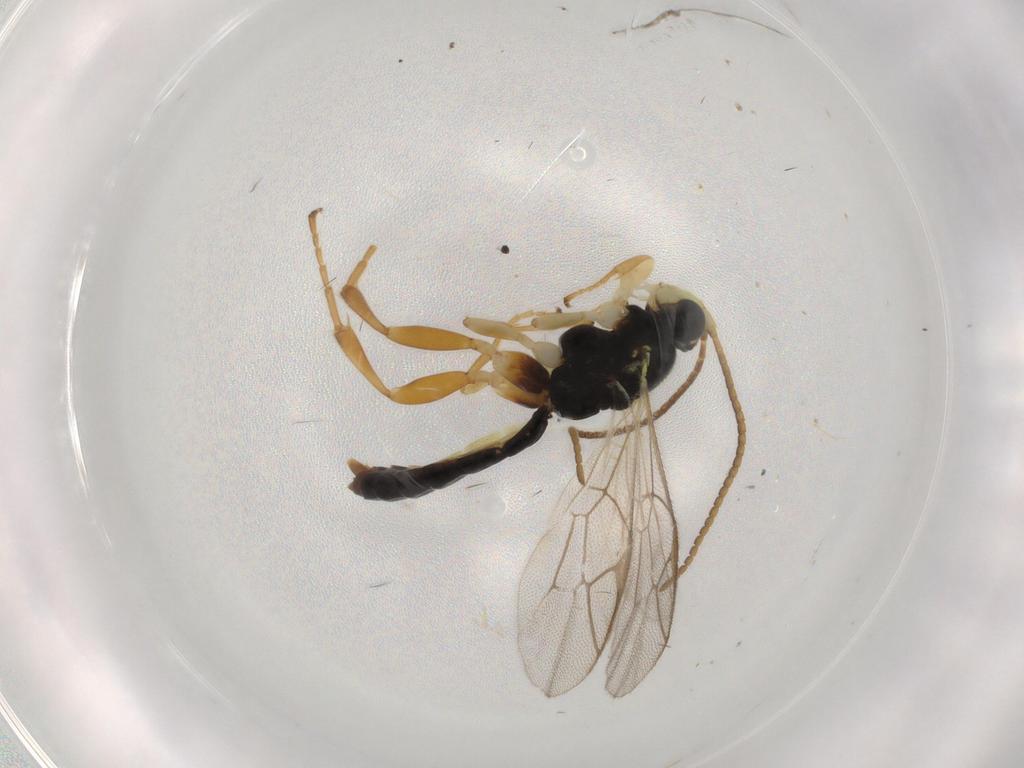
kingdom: Animalia
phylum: Arthropoda
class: Insecta
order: Hymenoptera
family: Ichneumonidae
